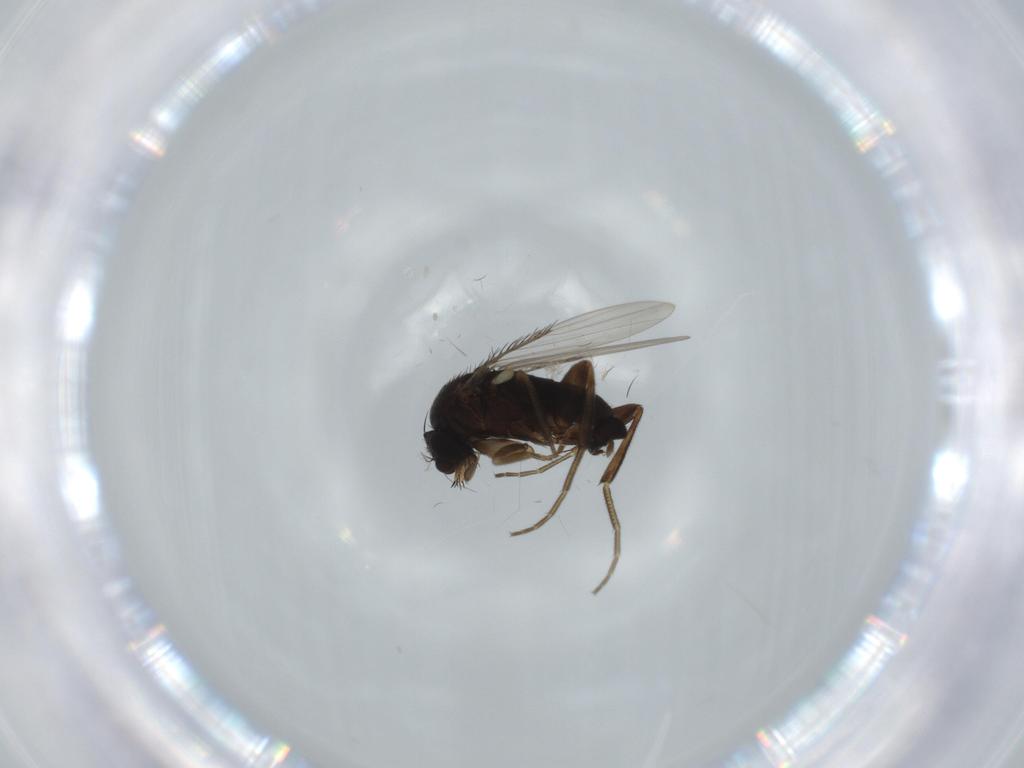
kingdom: Animalia
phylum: Arthropoda
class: Insecta
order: Diptera
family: Phoridae
